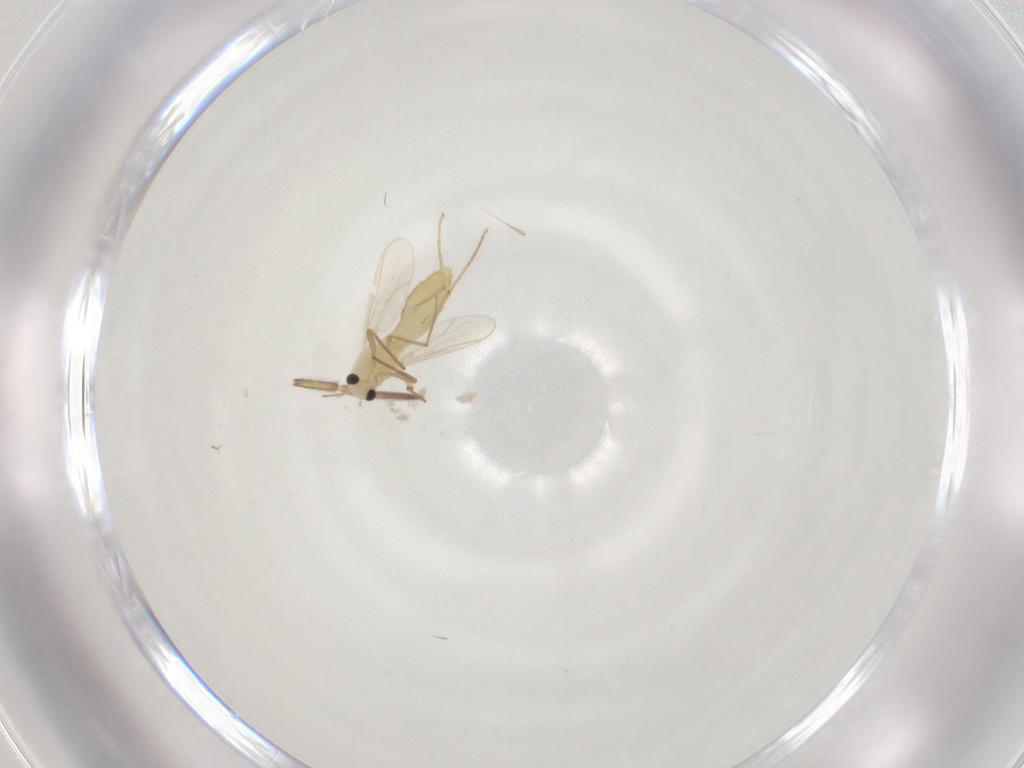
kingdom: Animalia
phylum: Arthropoda
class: Insecta
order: Diptera
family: Chironomidae
